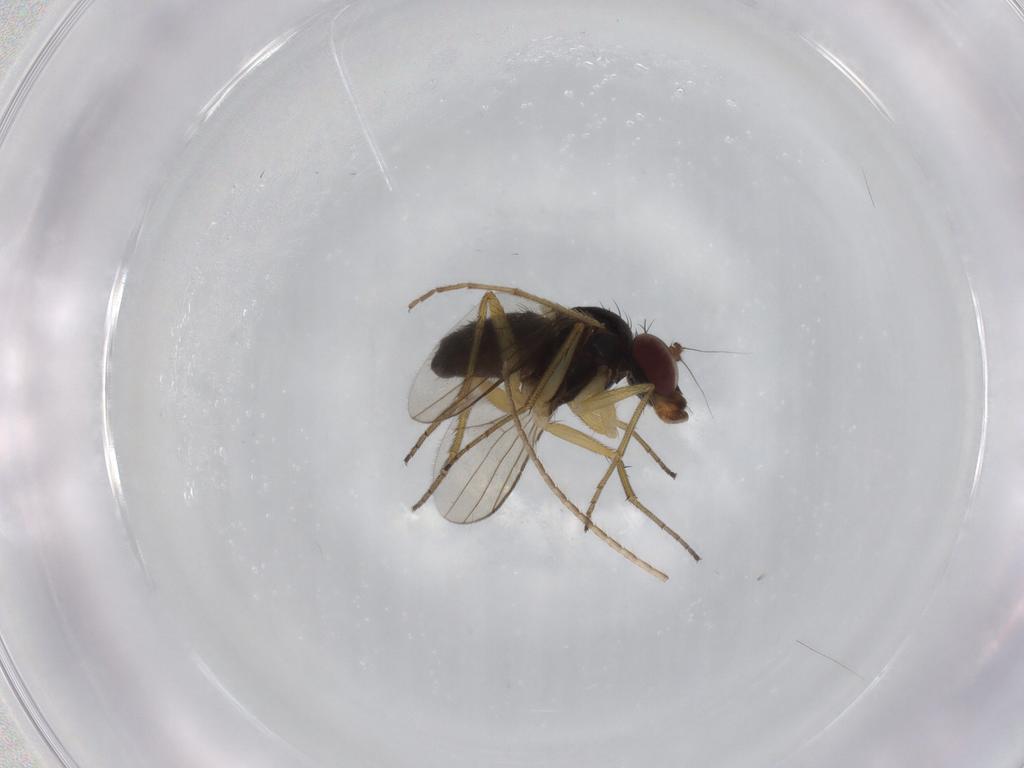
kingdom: Animalia
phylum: Arthropoda
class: Insecta
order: Diptera
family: Dolichopodidae
